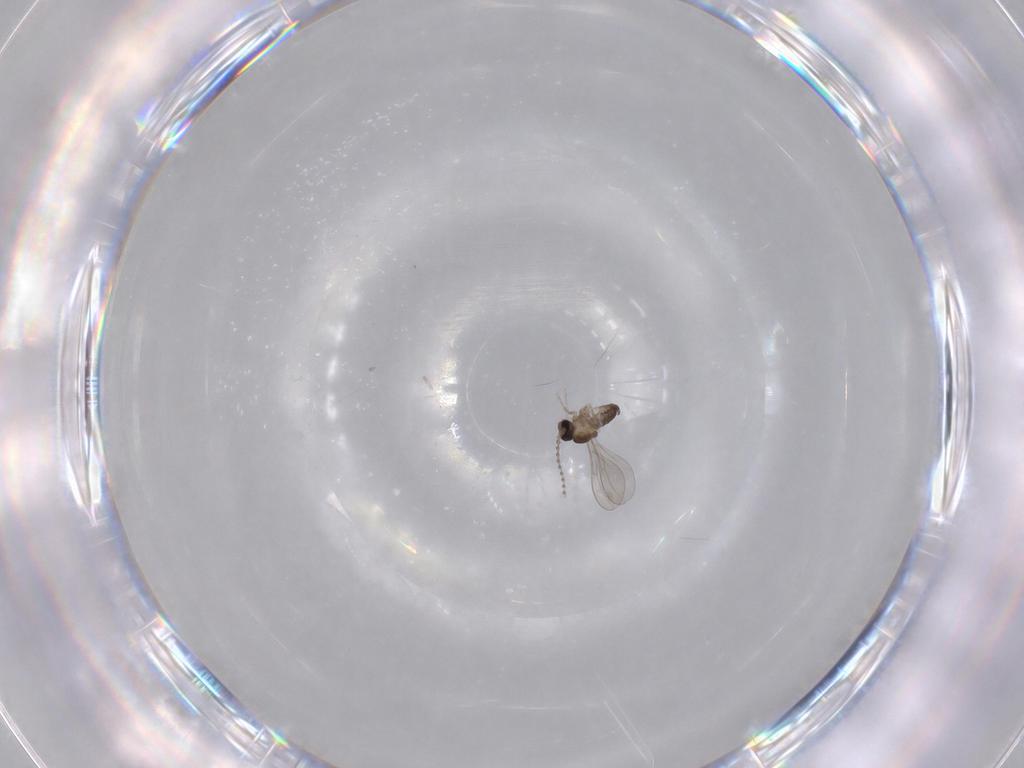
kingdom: Animalia
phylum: Arthropoda
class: Insecta
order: Diptera
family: Cecidomyiidae
